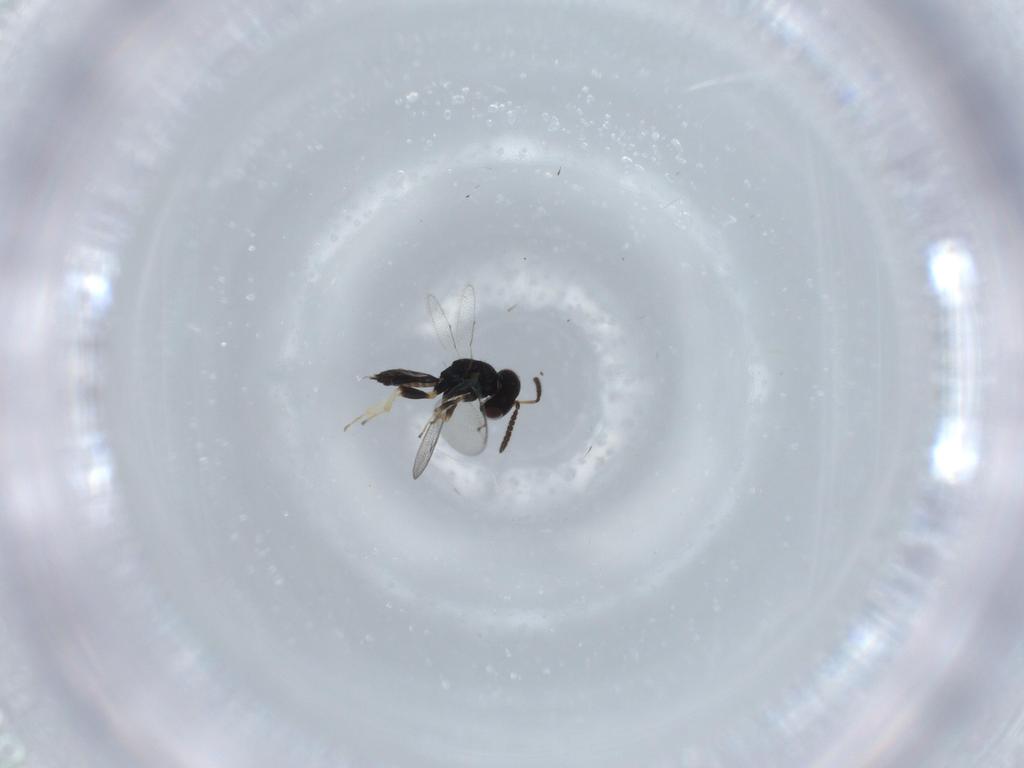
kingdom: Animalia
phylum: Arthropoda
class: Insecta
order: Hymenoptera
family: Pteromalidae
